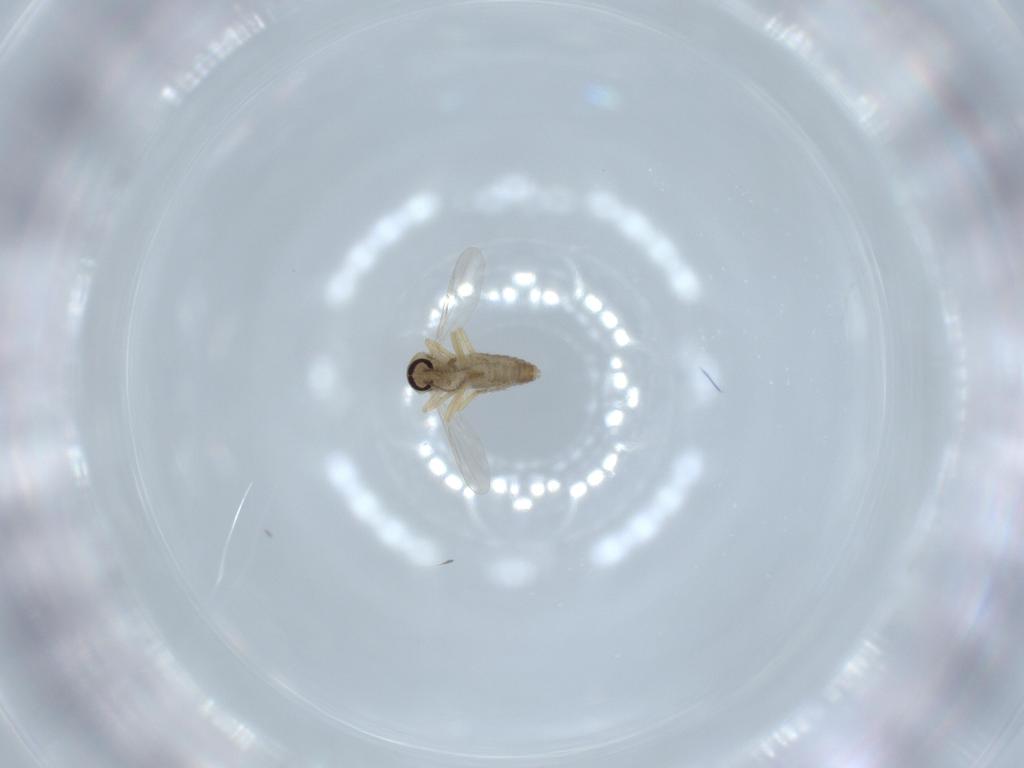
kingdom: Animalia
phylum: Arthropoda
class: Insecta
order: Diptera
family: Ceratopogonidae
